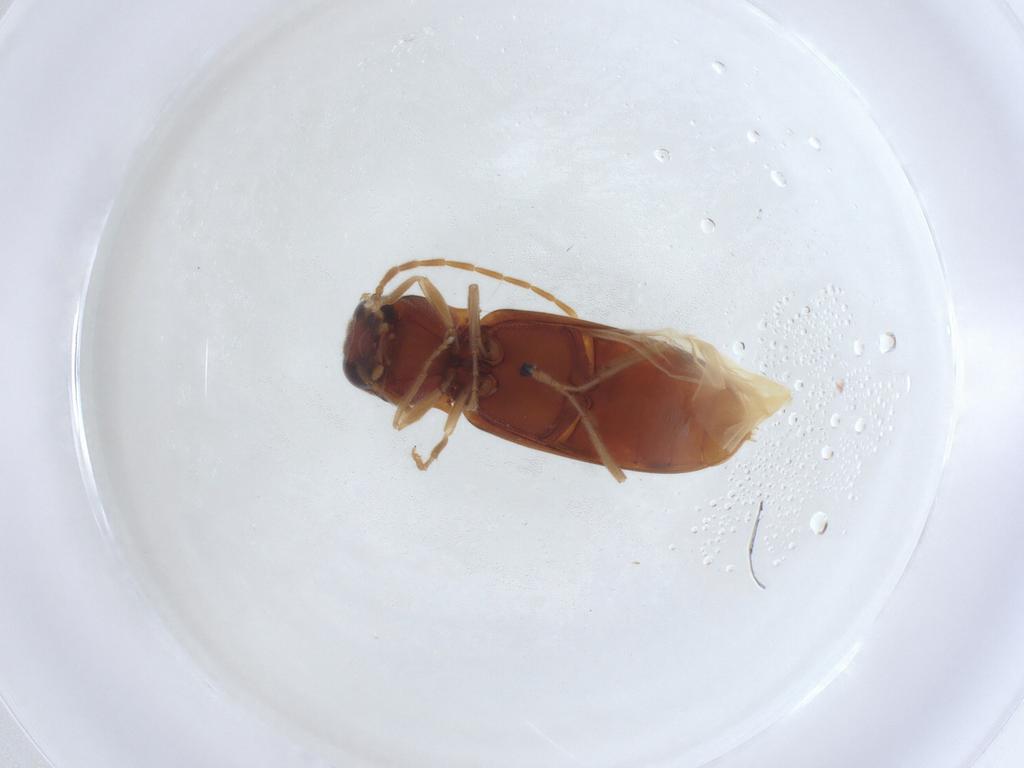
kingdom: Animalia
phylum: Arthropoda
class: Insecta
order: Coleoptera
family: Elateridae
